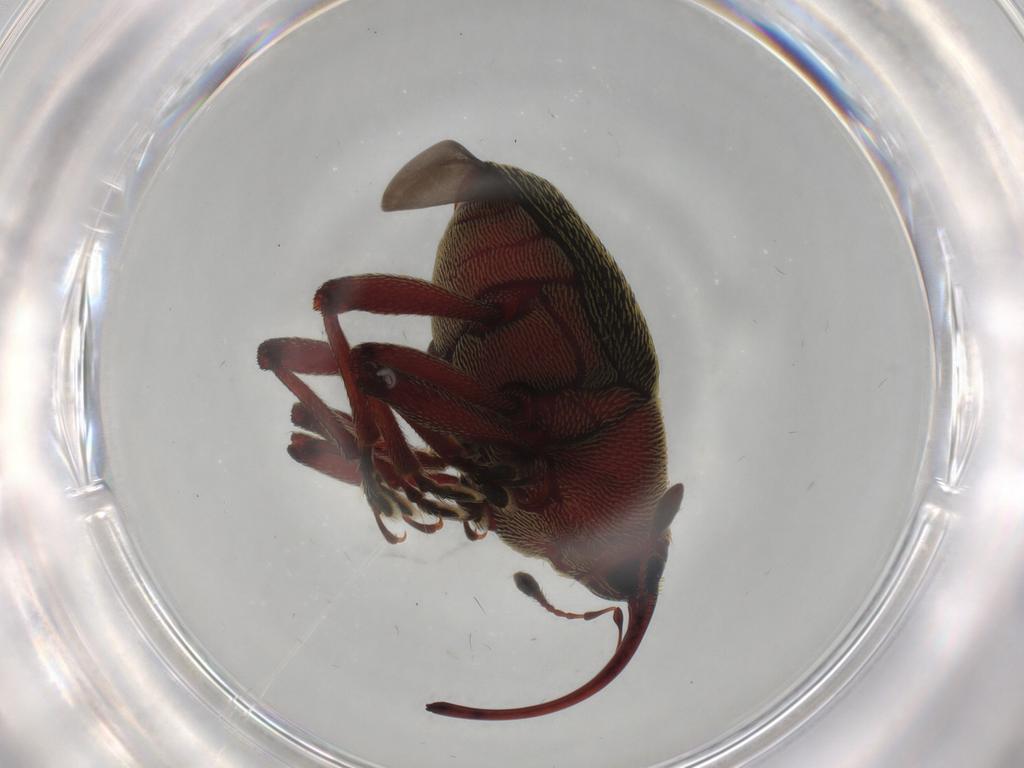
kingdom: Animalia
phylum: Arthropoda
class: Insecta
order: Coleoptera
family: Curculionidae
